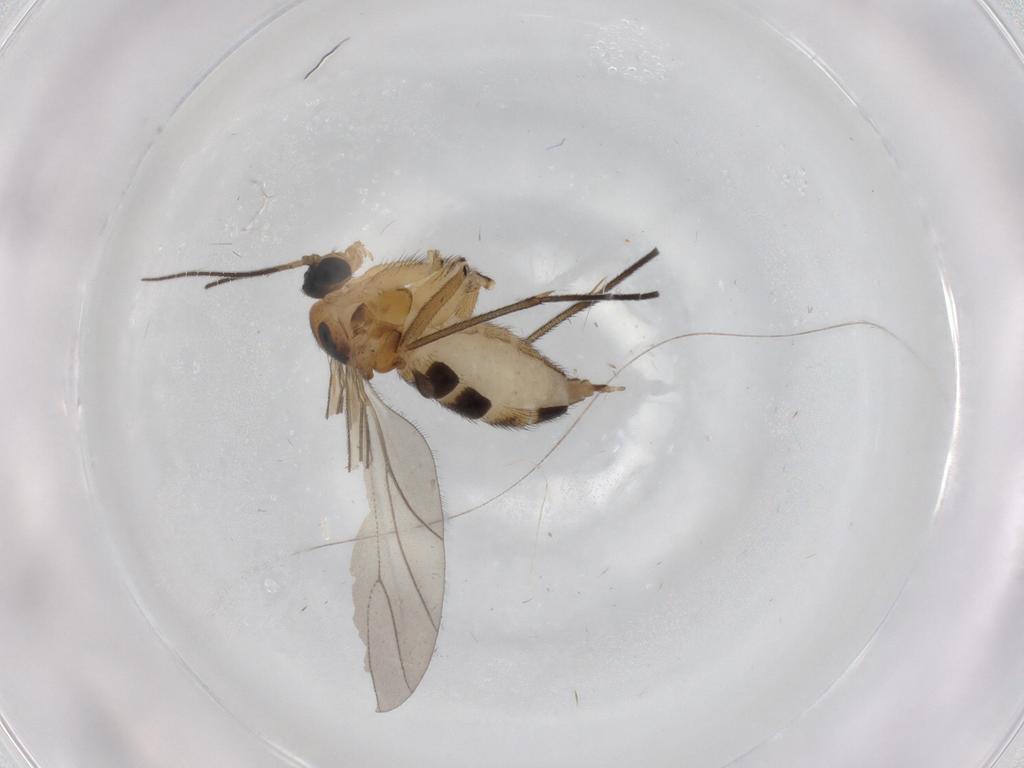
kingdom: Animalia
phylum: Arthropoda
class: Insecta
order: Diptera
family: Sciaridae
